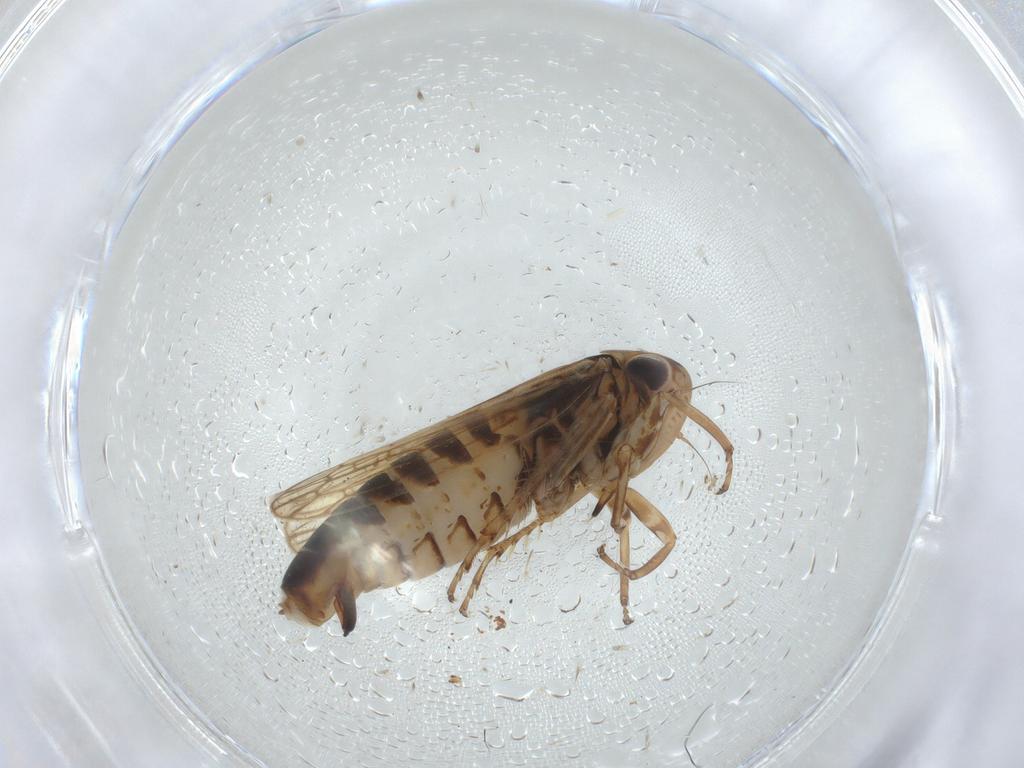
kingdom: Animalia
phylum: Arthropoda
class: Insecta
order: Hemiptera
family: Cicadellidae
